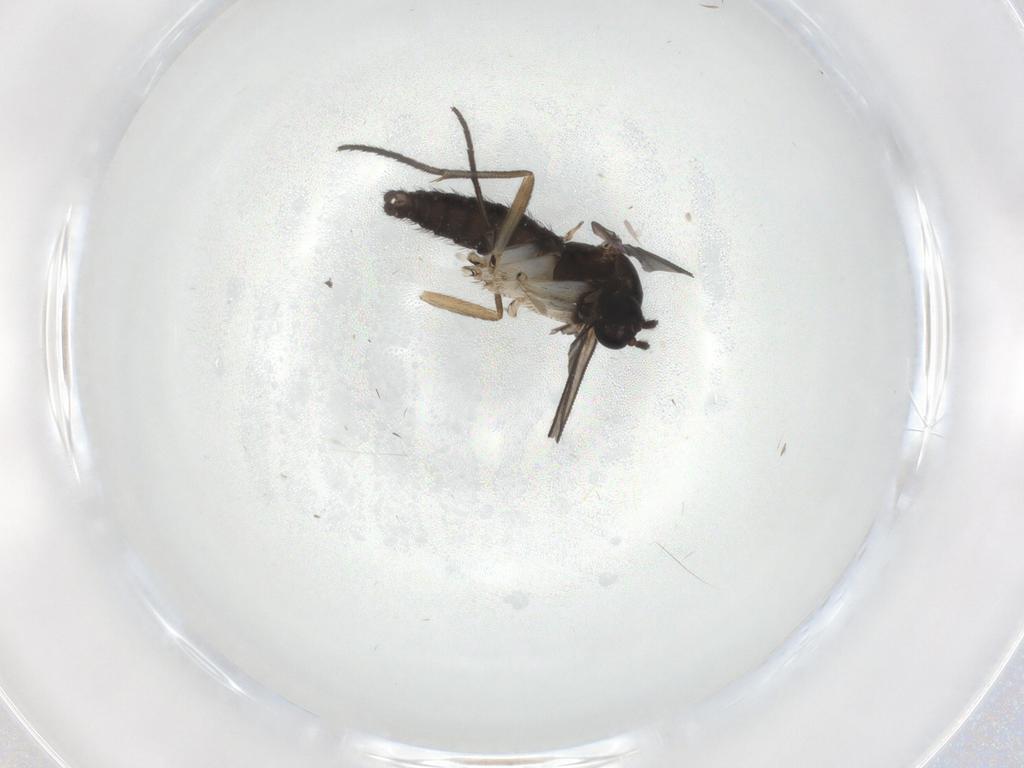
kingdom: Animalia
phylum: Arthropoda
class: Insecta
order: Diptera
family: Sciaridae
